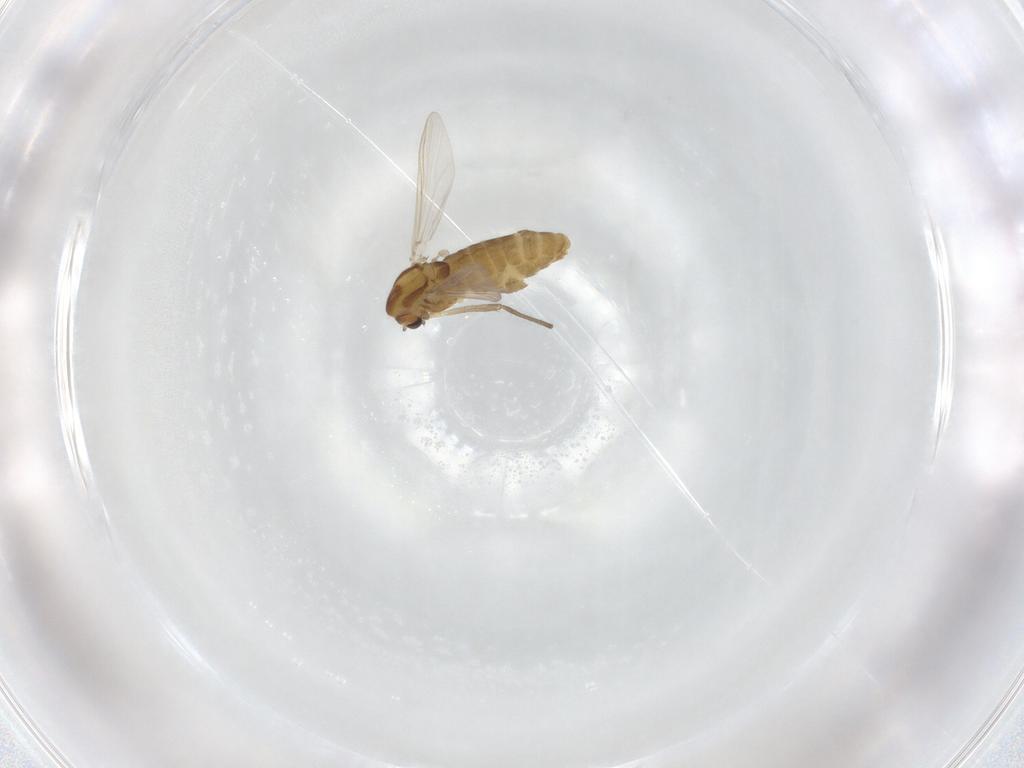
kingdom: Animalia
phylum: Arthropoda
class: Insecta
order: Diptera
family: Chironomidae
